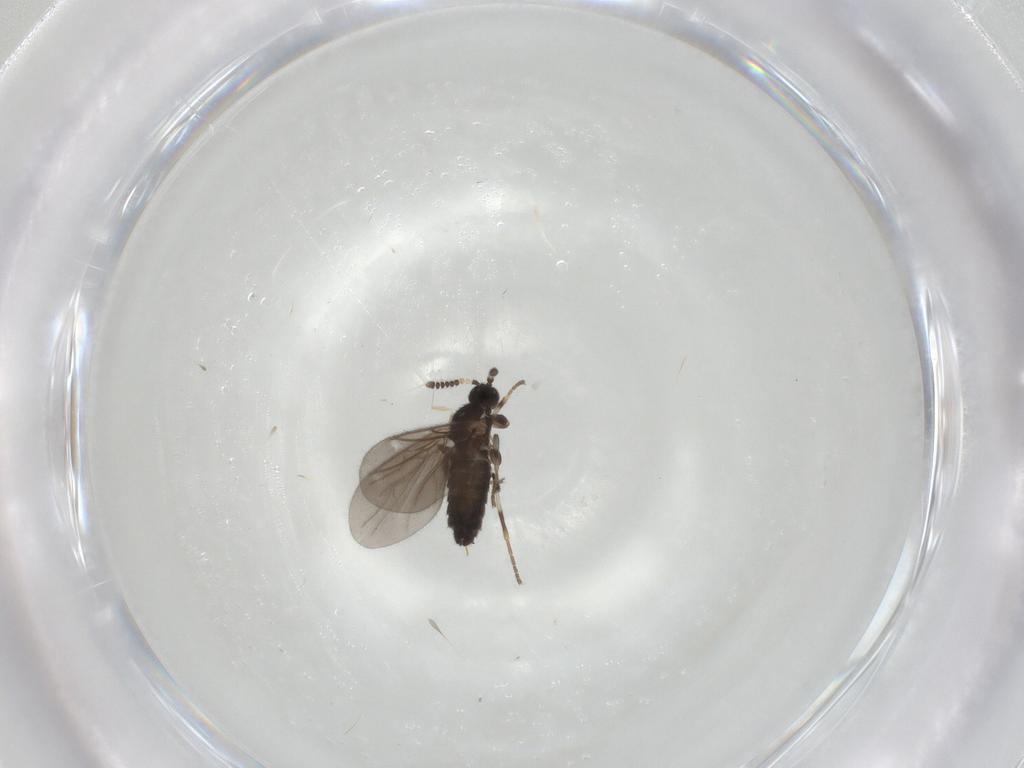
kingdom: Animalia
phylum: Arthropoda
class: Insecta
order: Diptera
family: Scatopsidae
